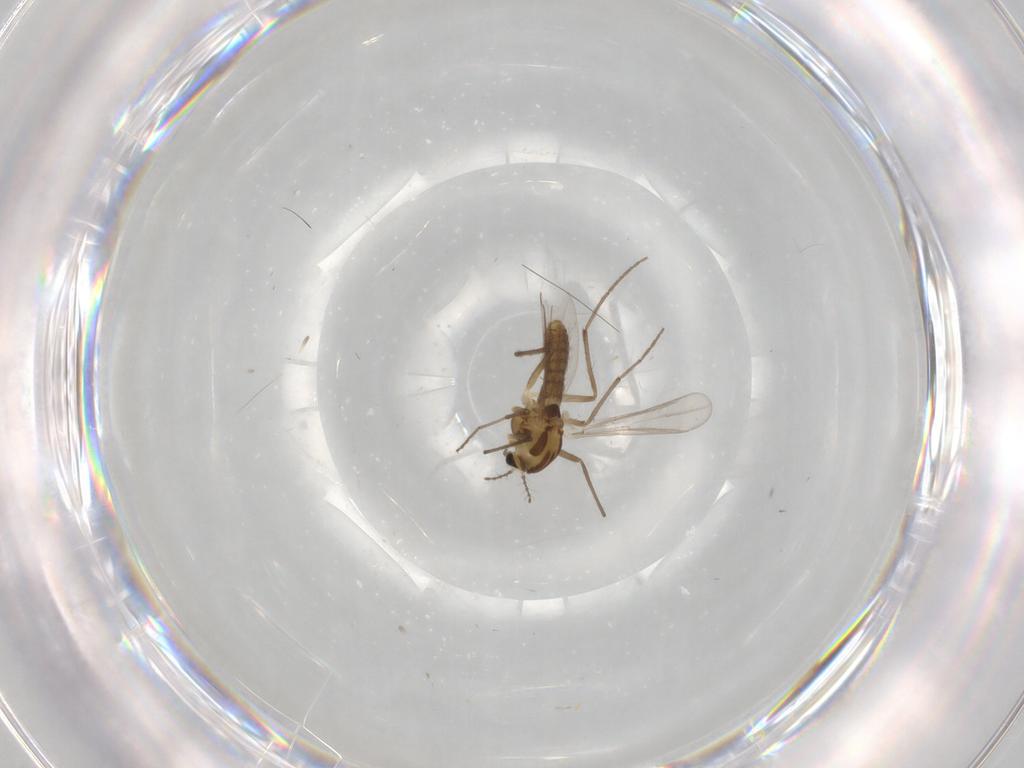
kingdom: Animalia
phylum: Arthropoda
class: Insecta
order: Diptera
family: Chironomidae
